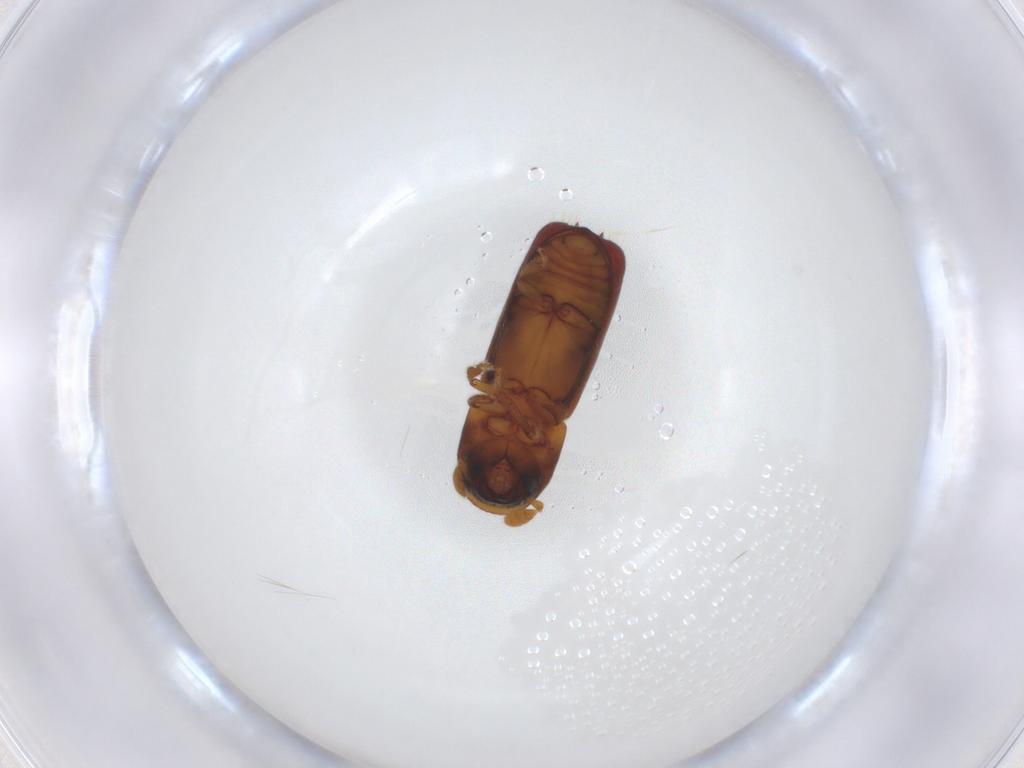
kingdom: Animalia
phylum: Arthropoda
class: Insecta
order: Coleoptera
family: Curculionidae
